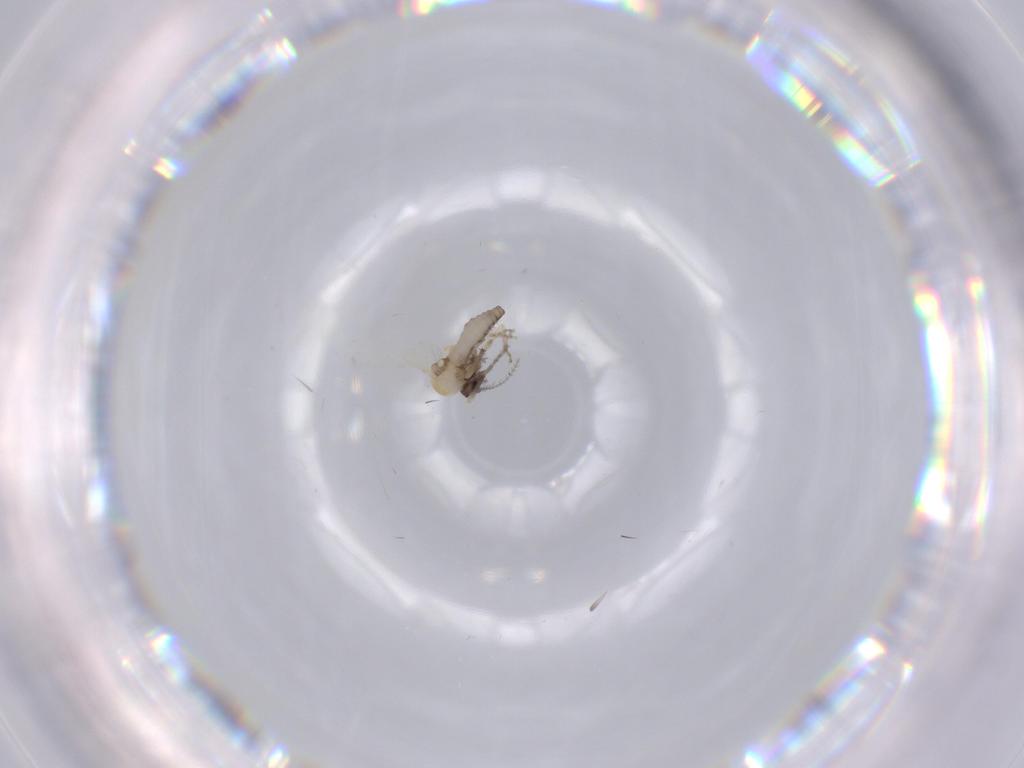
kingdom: Animalia
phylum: Arthropoda
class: Insecta
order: Diptera
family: Ceratopogonidae
